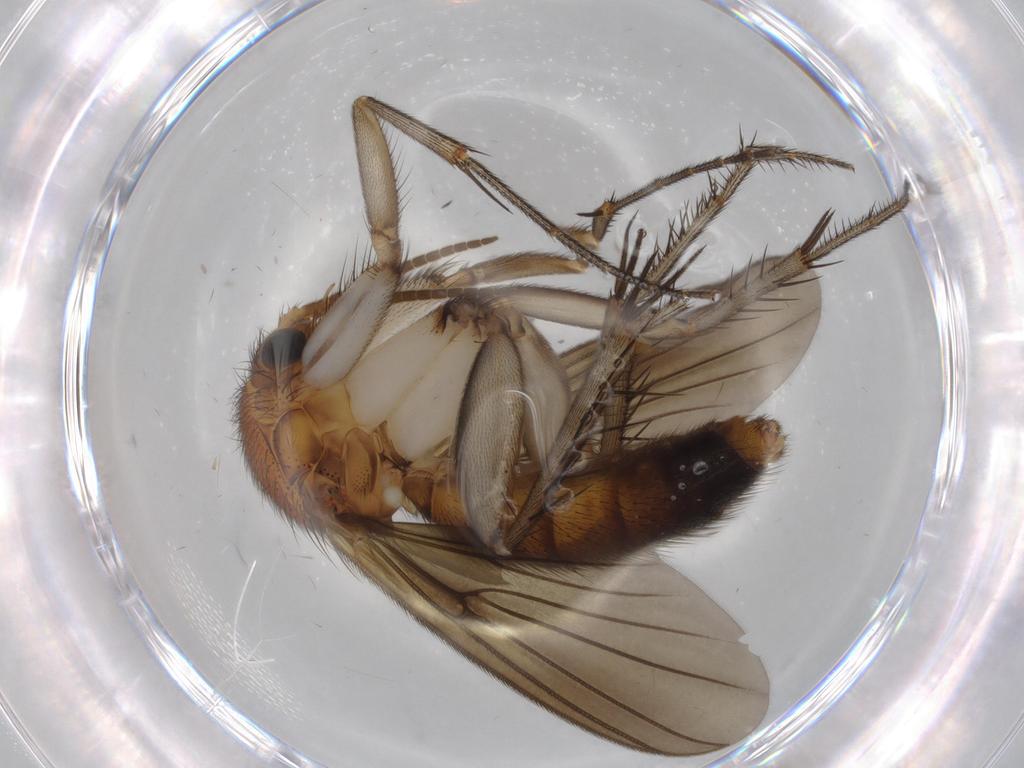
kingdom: Animalia
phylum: Arthropoda
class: Insecta
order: Diptera
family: Mycetophilidae
